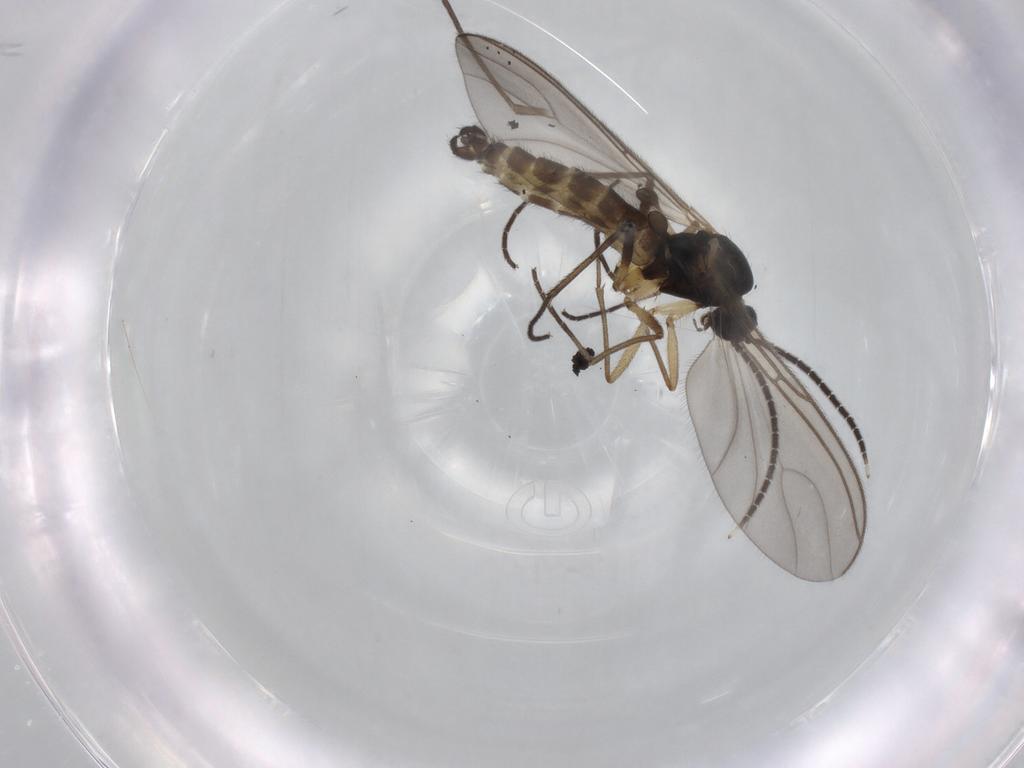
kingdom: Animalia
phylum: Arthropoda
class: Insecta
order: Diptera
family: Sciaridae
